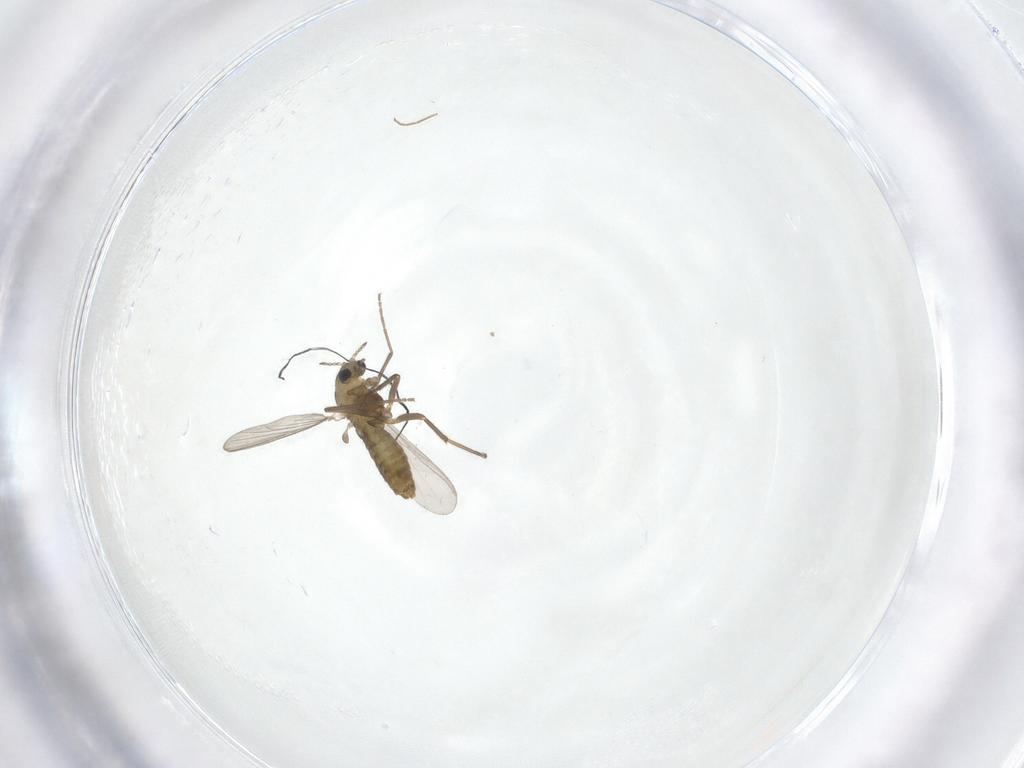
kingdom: Animalia
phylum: Arthropoda
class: Insecta
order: Diptera
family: Chironomidae
